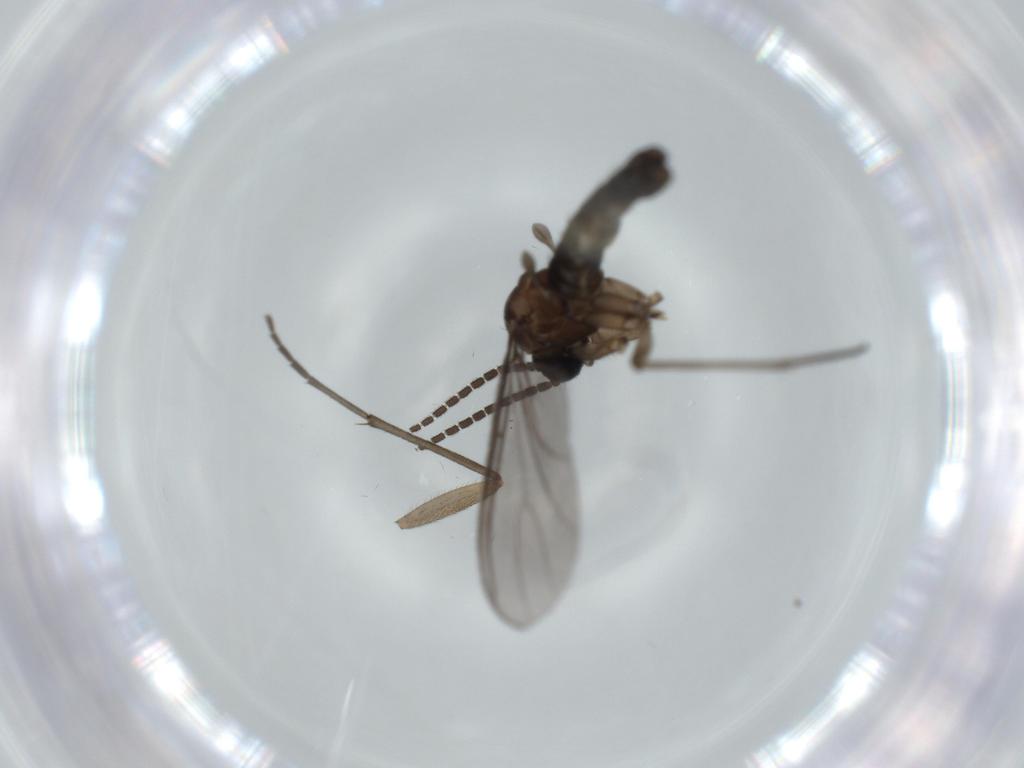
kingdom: Animalia
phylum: Arthropoda
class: Insecta
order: Diptera
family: Sciaridae
